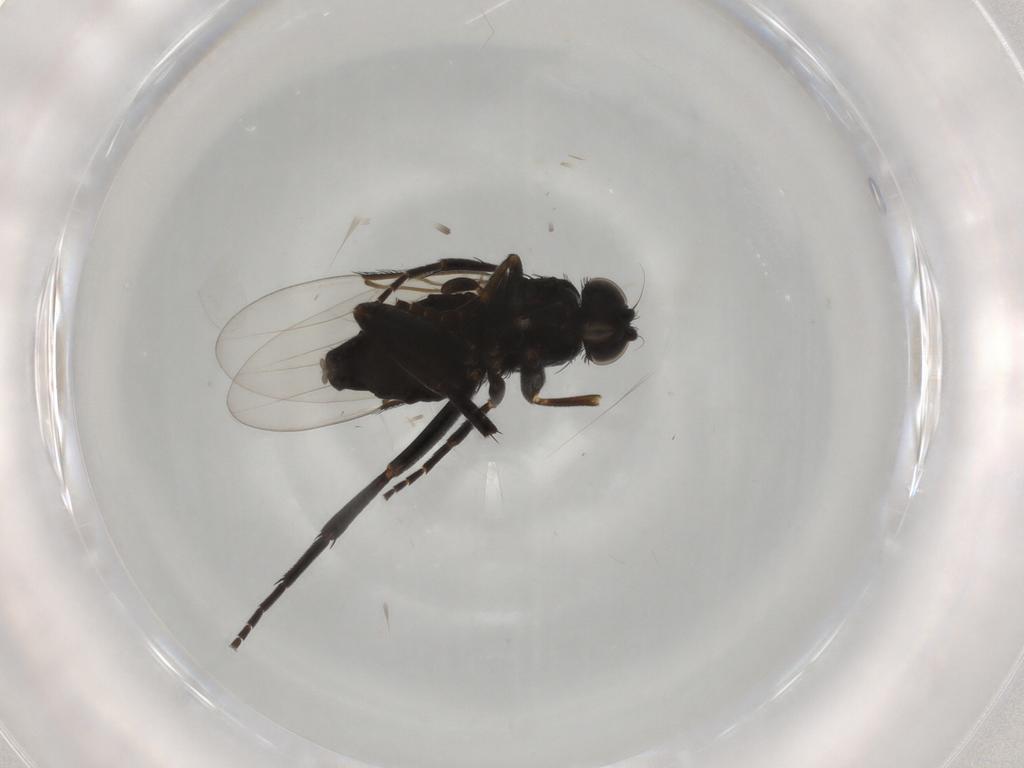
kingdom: Animalia
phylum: Arthropoda
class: Insecta
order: Diptera
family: Phoridae
